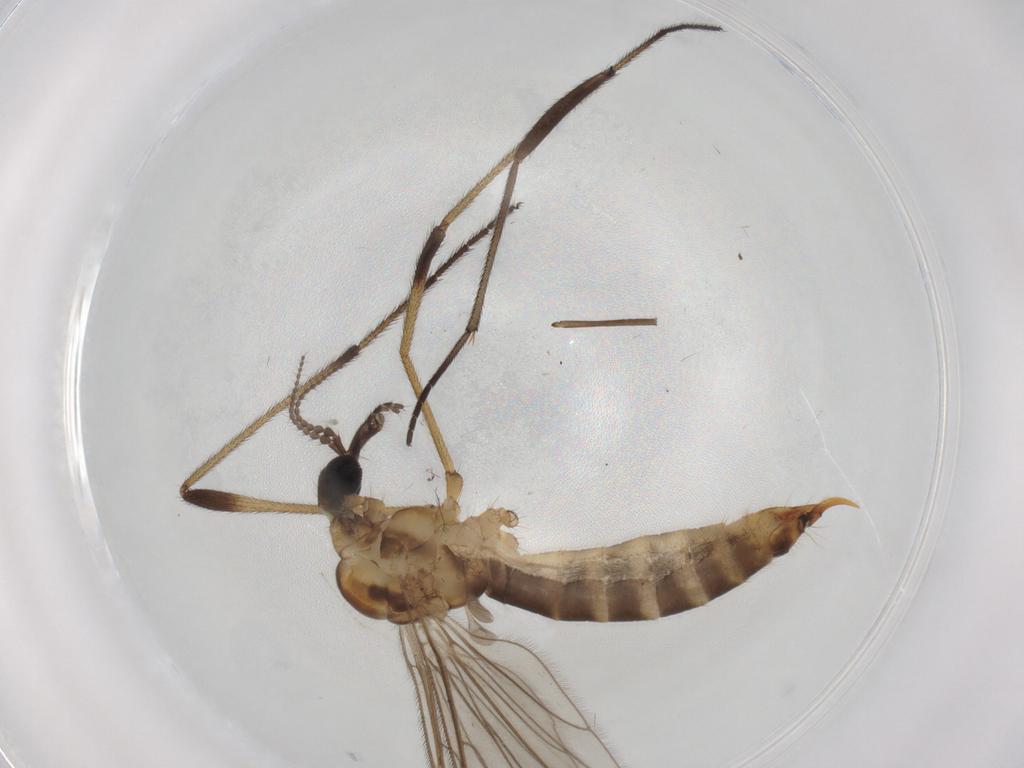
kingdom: Animalia
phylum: Arthropoda
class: Insecta
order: Diptera
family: Limoniidae
